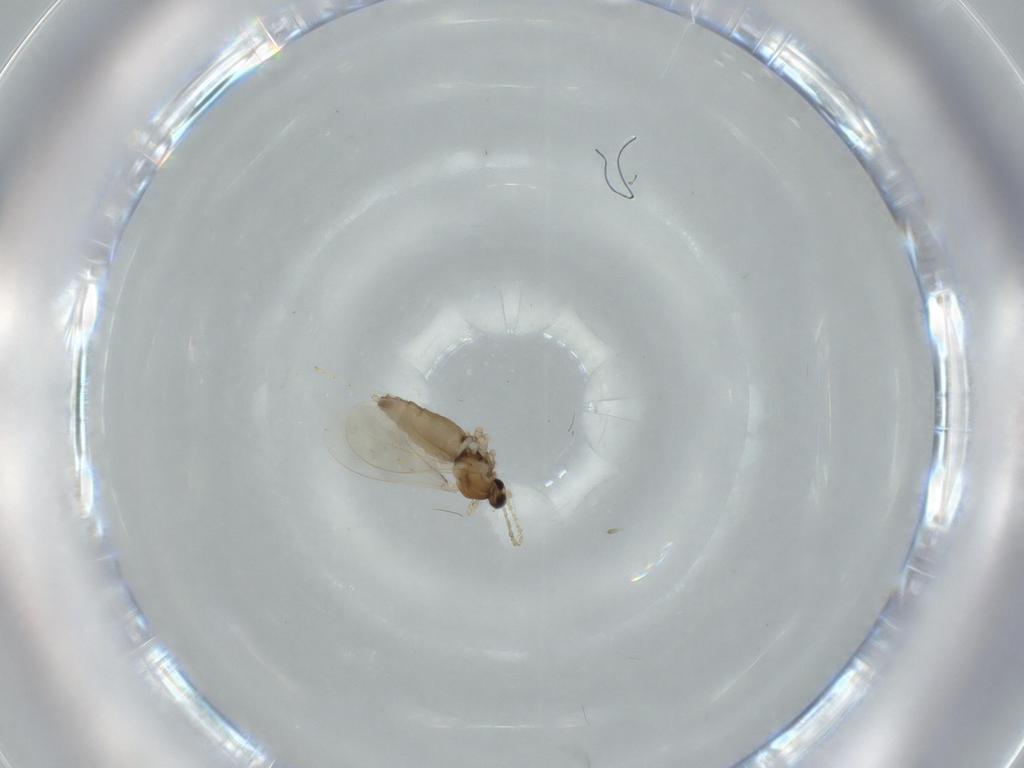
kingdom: Animalia
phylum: Arthropoda
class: Insecta
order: Diptera
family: Cecidomyiidae
